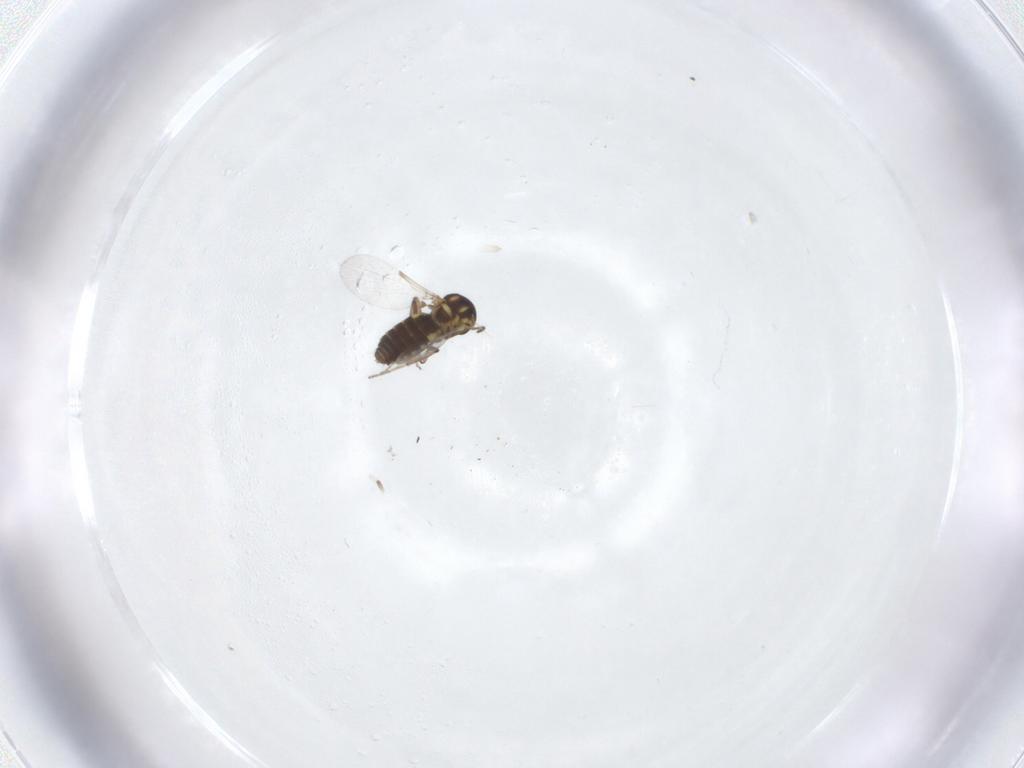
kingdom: Animalia
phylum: Arthropoda
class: Insecta
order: Diptera
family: Ceratopogonidae
